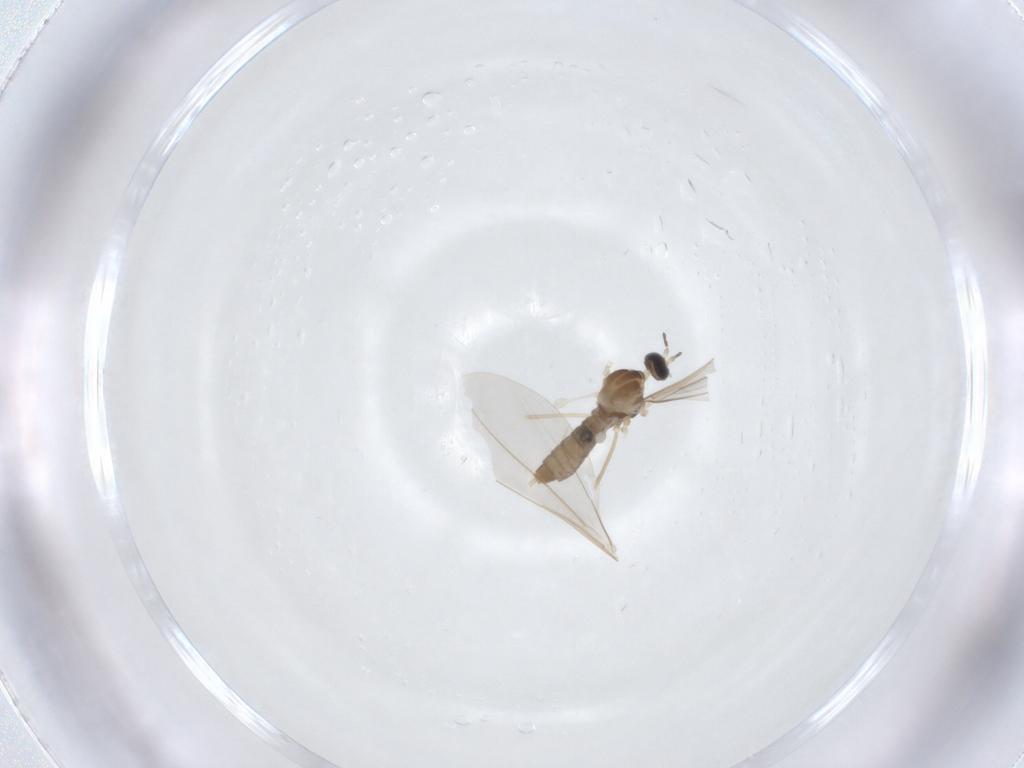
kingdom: Animalia
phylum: Arthropoda
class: Insecta
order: Diptera
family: Cecidomyiidae
